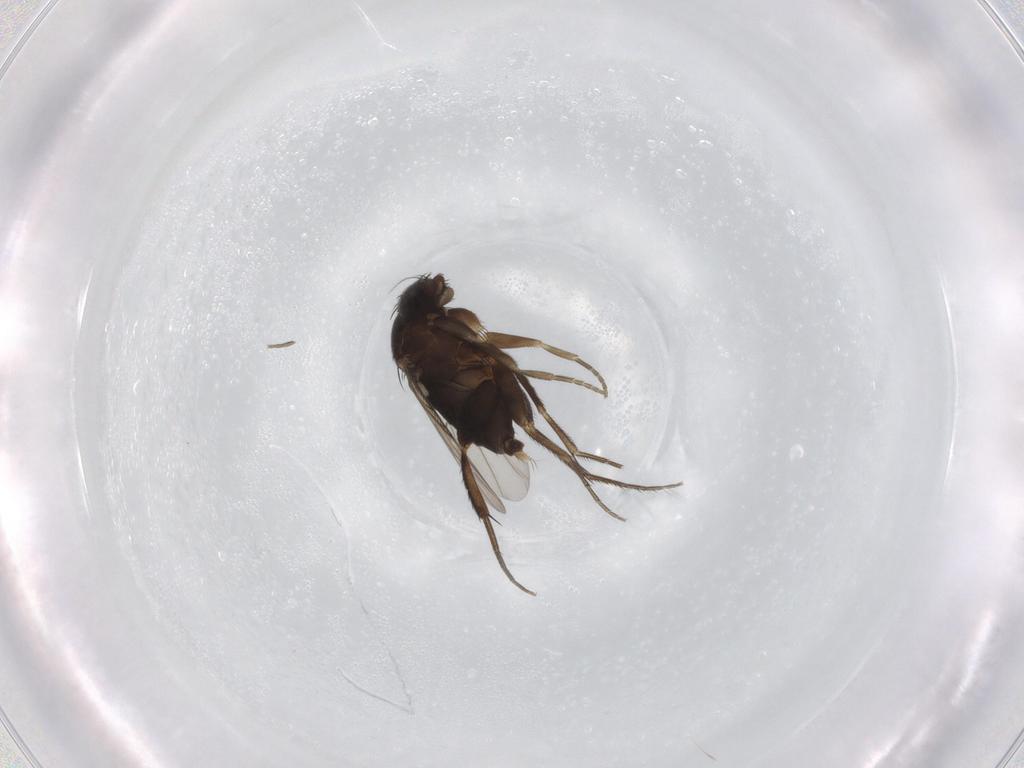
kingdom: Animalia
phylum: Arthropoda
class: Insecta
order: Diptera
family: Phoridae
